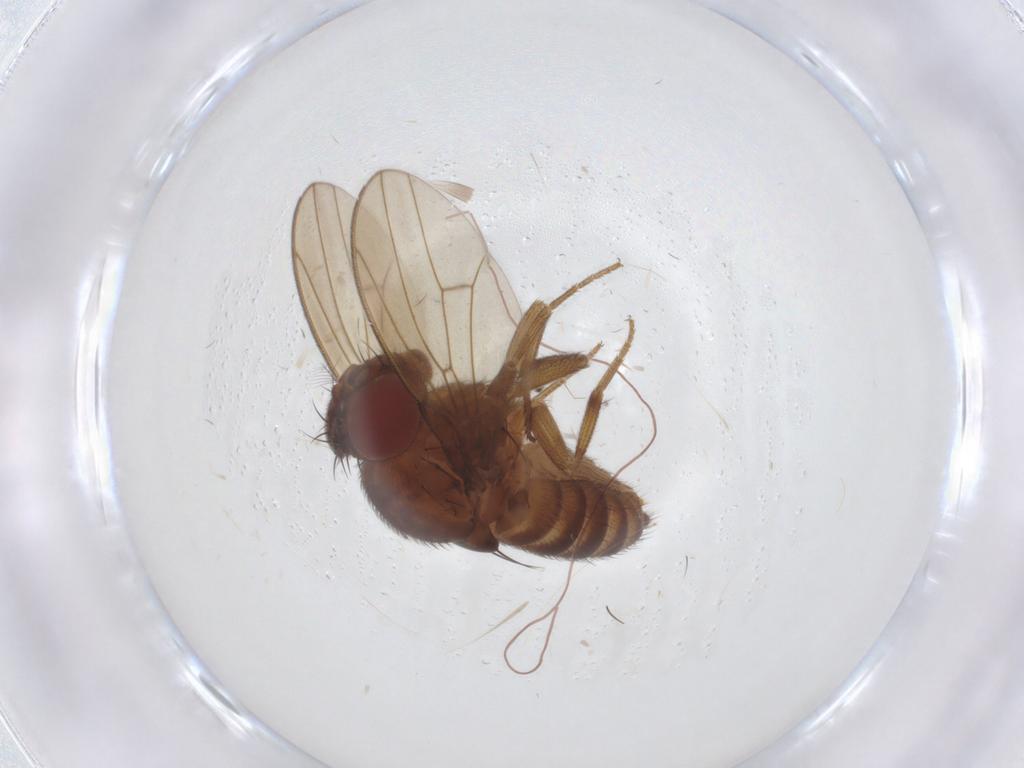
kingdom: Animalia
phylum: Arthropoda
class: Insecta
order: Diptera
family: Drosophilidae
